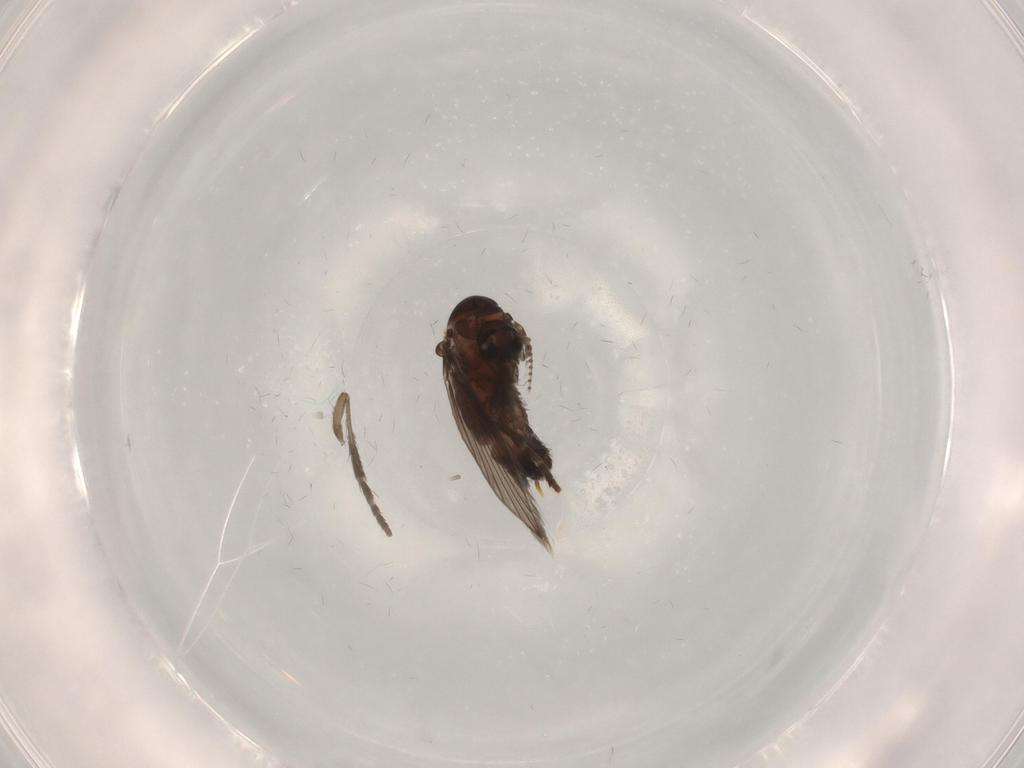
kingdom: Animalia
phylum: Arthropoda
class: Insecta
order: Diptera
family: Psychodidae
